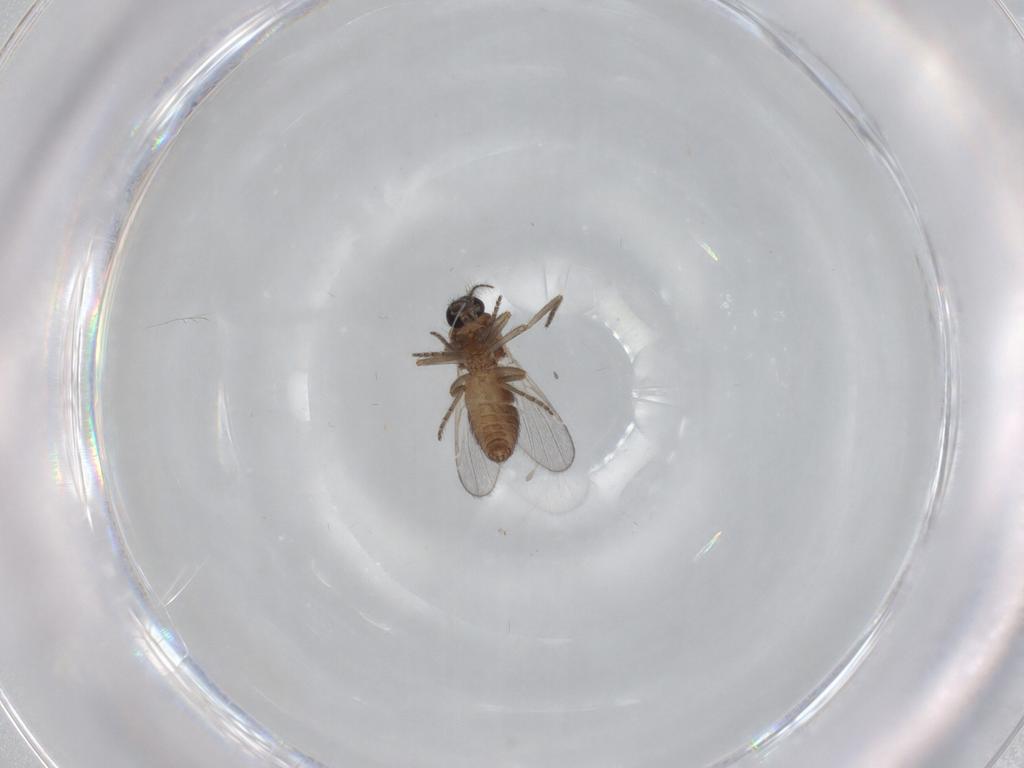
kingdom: Animalia
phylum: Arthropoda
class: Insecta
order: Diptera
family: Ceratopogonidae
